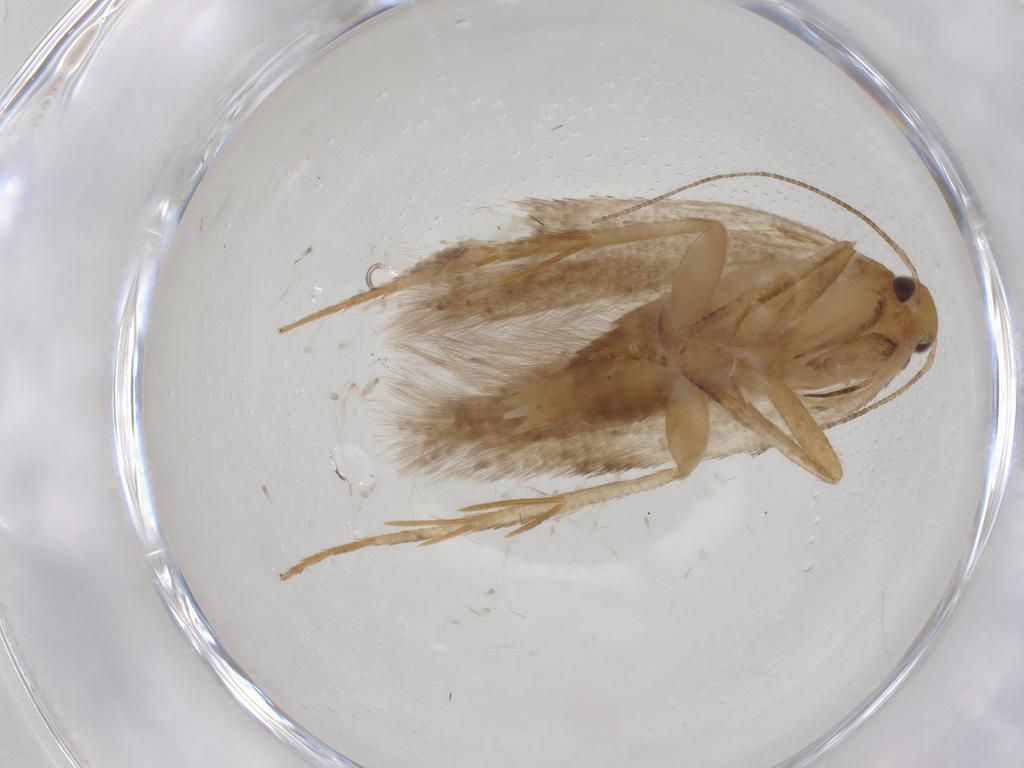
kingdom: Animalia
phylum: Arthropoda
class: Insecta
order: Lepidoptera
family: Gelechiidae
